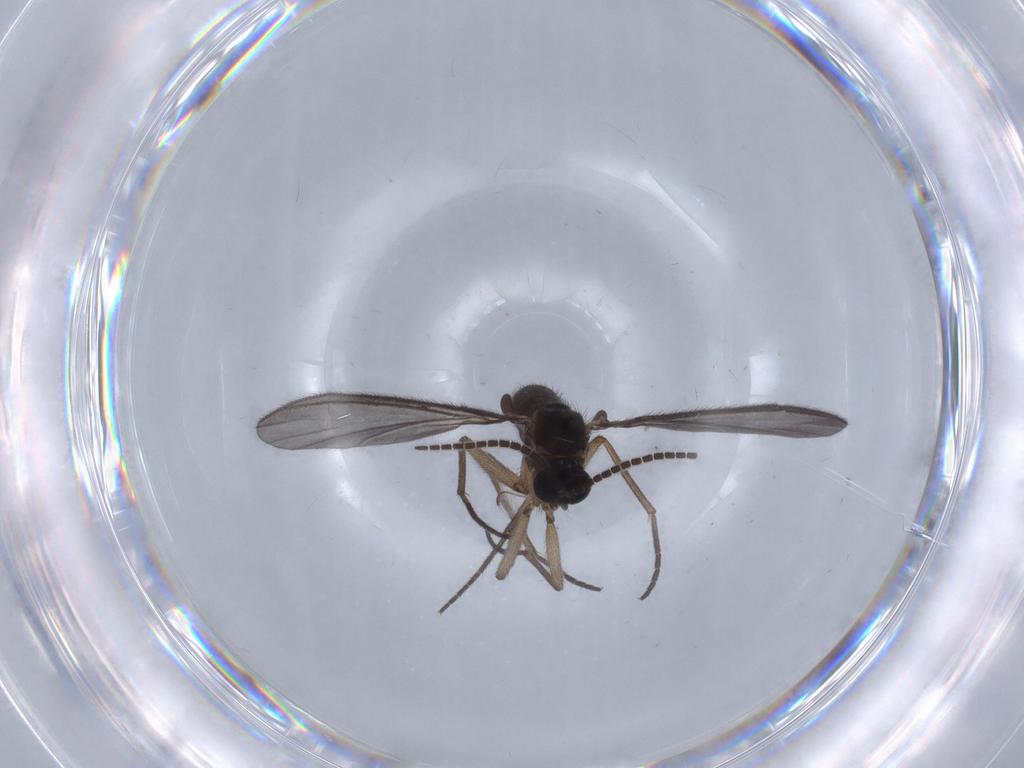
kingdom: Animalia
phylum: Arthropoda
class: Insecta
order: Diptera
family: Sciaridae
